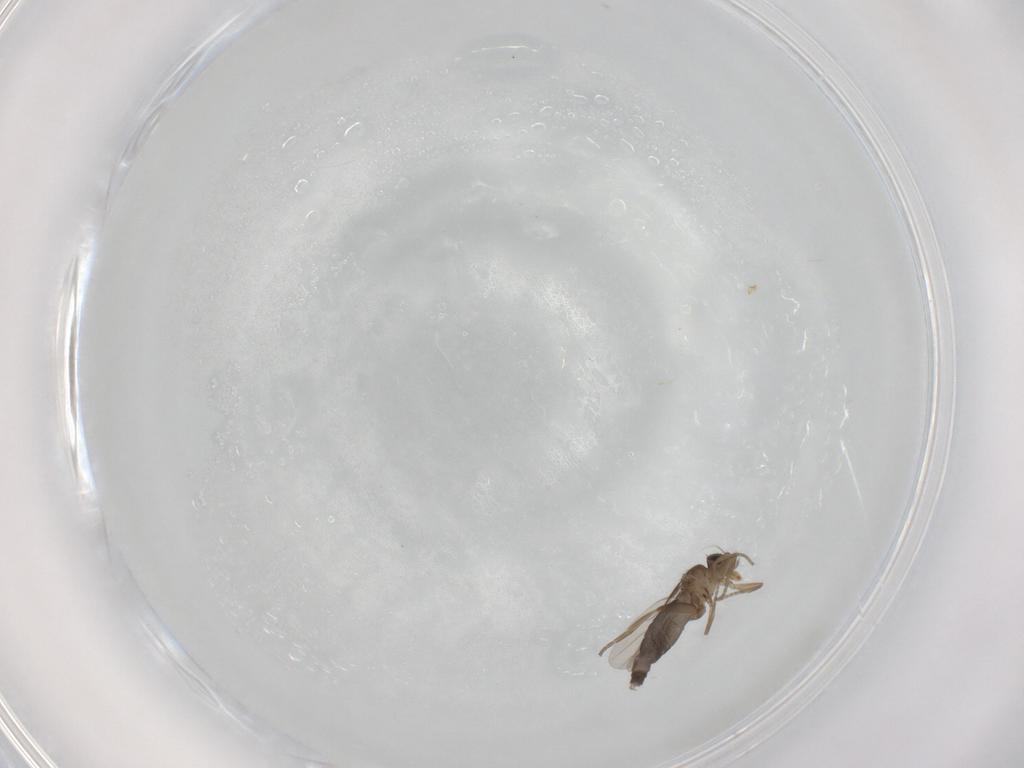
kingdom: Animalia
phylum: Arthropoda
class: Insecta
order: Diptera
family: Phoridae
